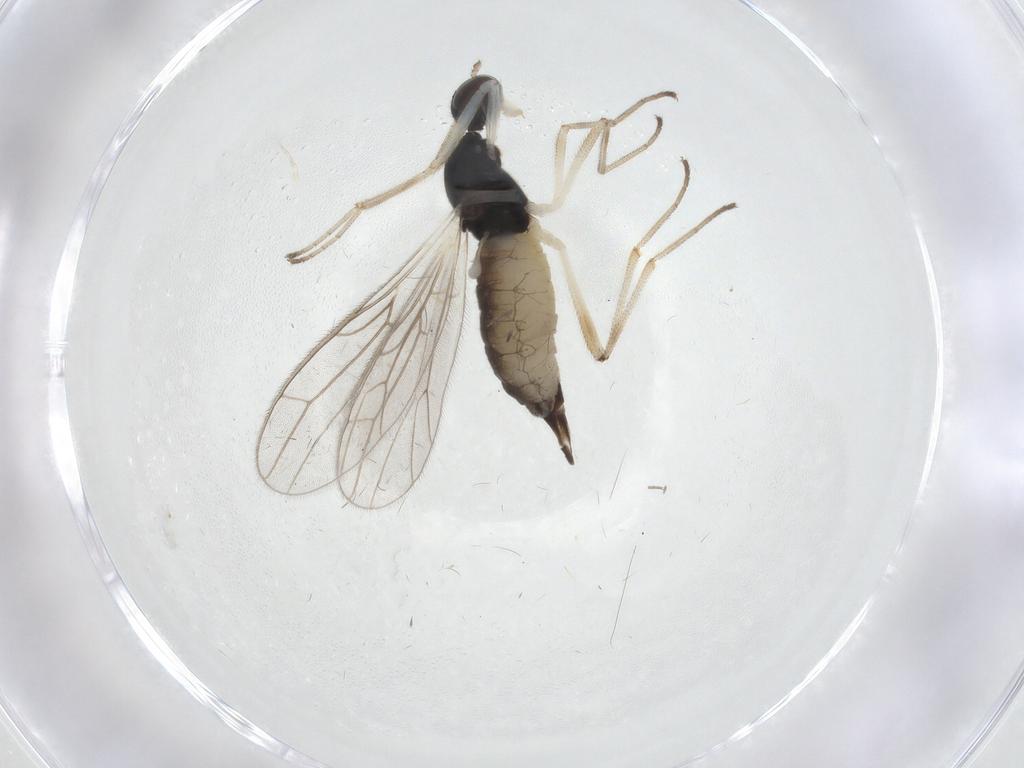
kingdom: Animalia
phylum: Arthropoda
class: Insecta
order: Diptera
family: Empididae
